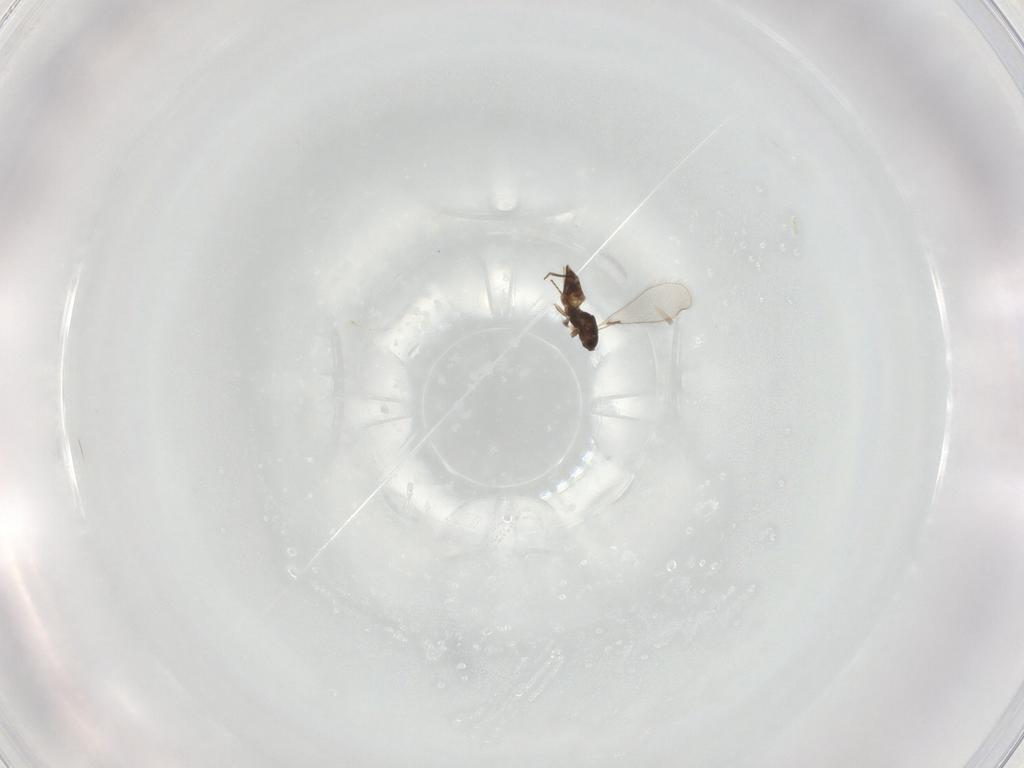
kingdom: Animalia
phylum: Arthropoda
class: Insecta
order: Hymenoptera
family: Mymaridae
